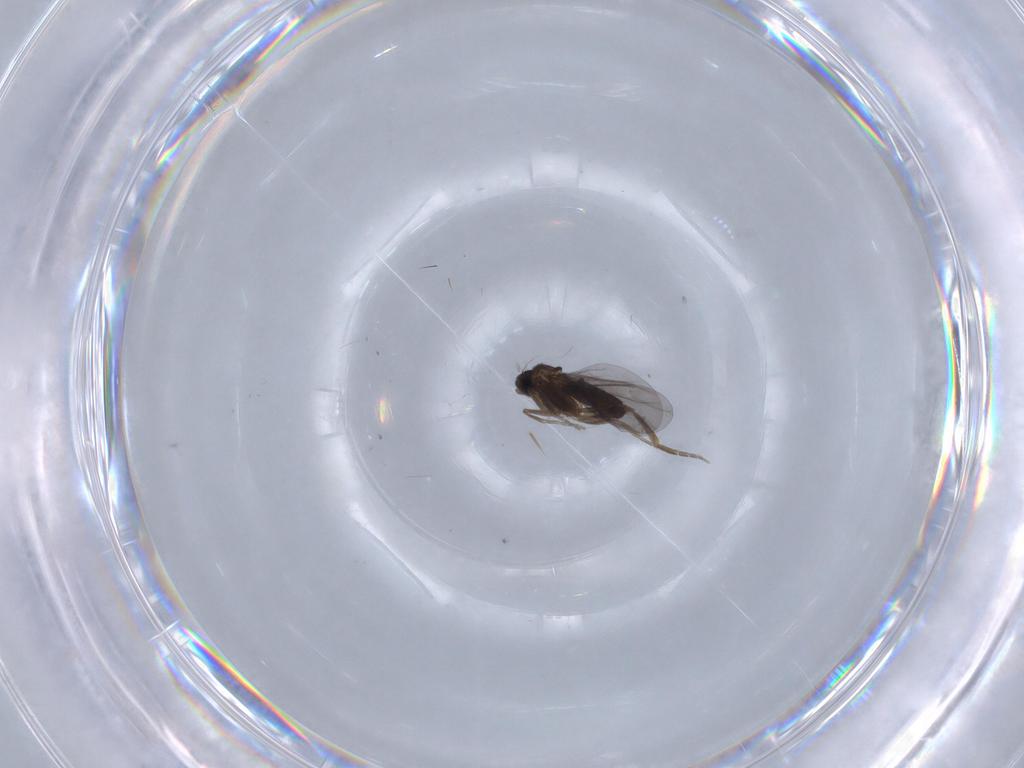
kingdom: Animalia
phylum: Arthropoda
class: Insecta
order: Diptera
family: Phoridae
